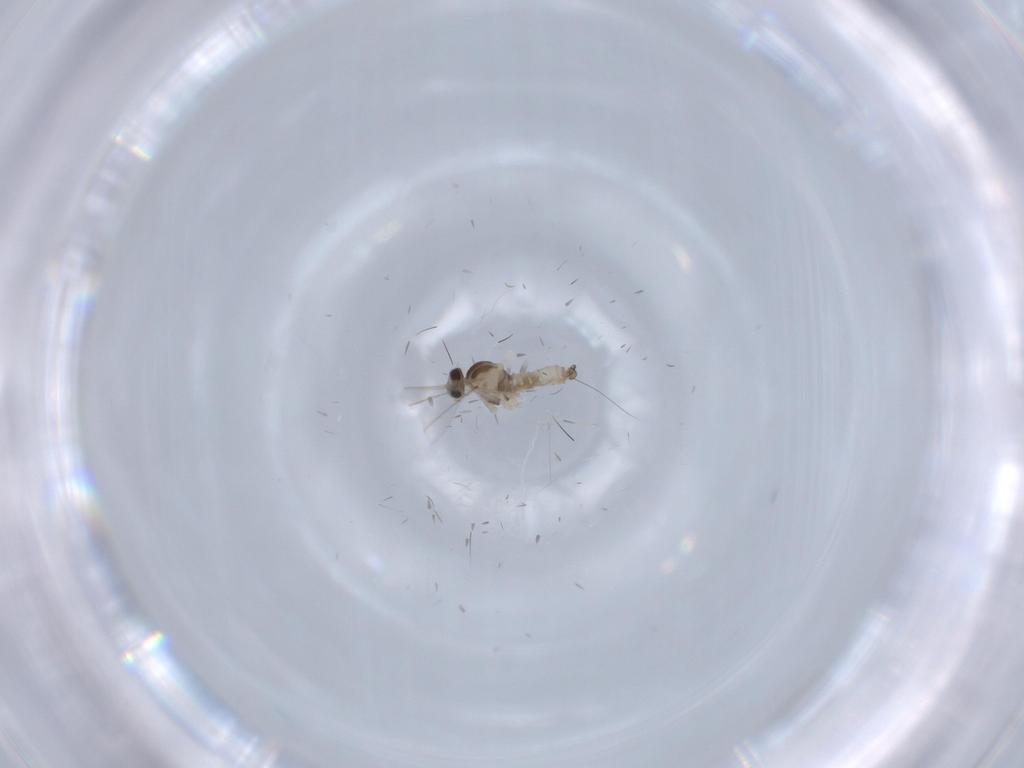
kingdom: Animalia
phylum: Arthropoda
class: Insecta
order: Diptera
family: Cecidomyiidae
